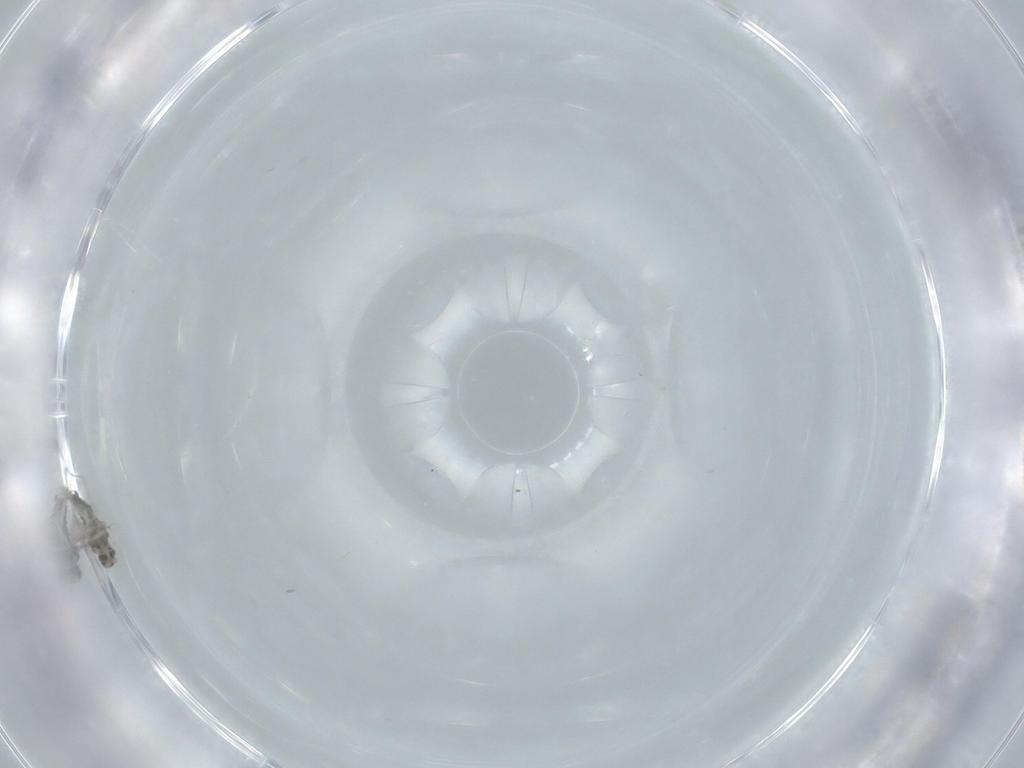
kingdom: Animalia
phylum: Arthropoda
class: Insecta
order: Diptera
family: Cecidomyiidae
